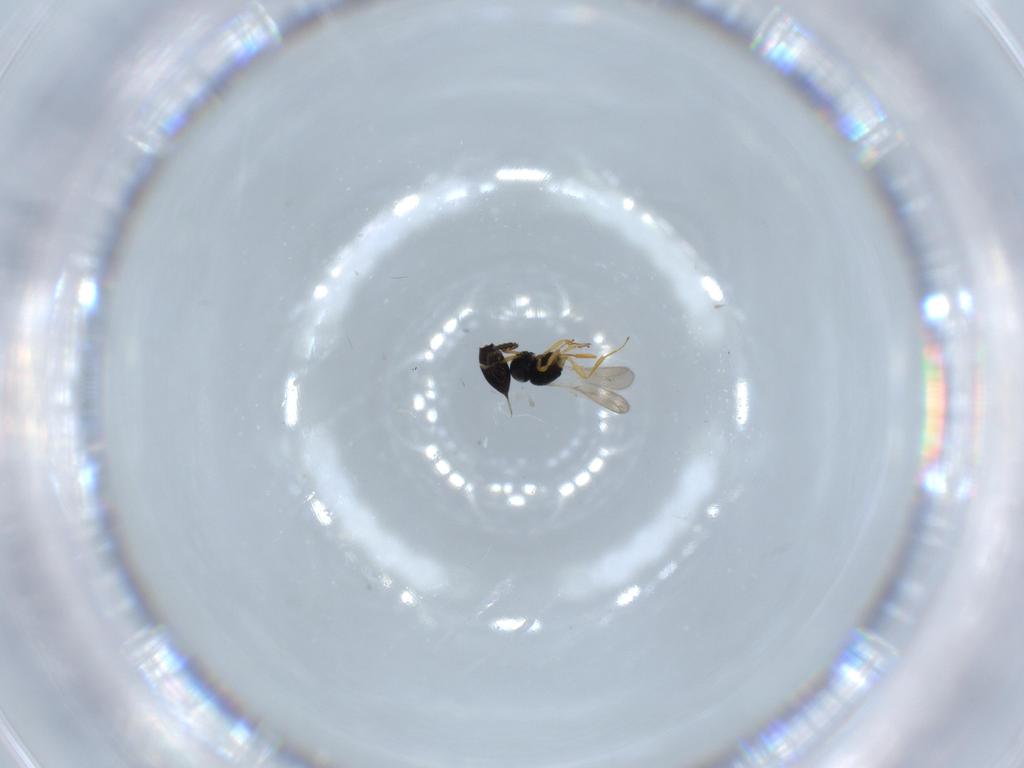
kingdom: Animalia
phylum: Arthropoda
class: Insecta
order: Hymenoptera
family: Scelionidae
